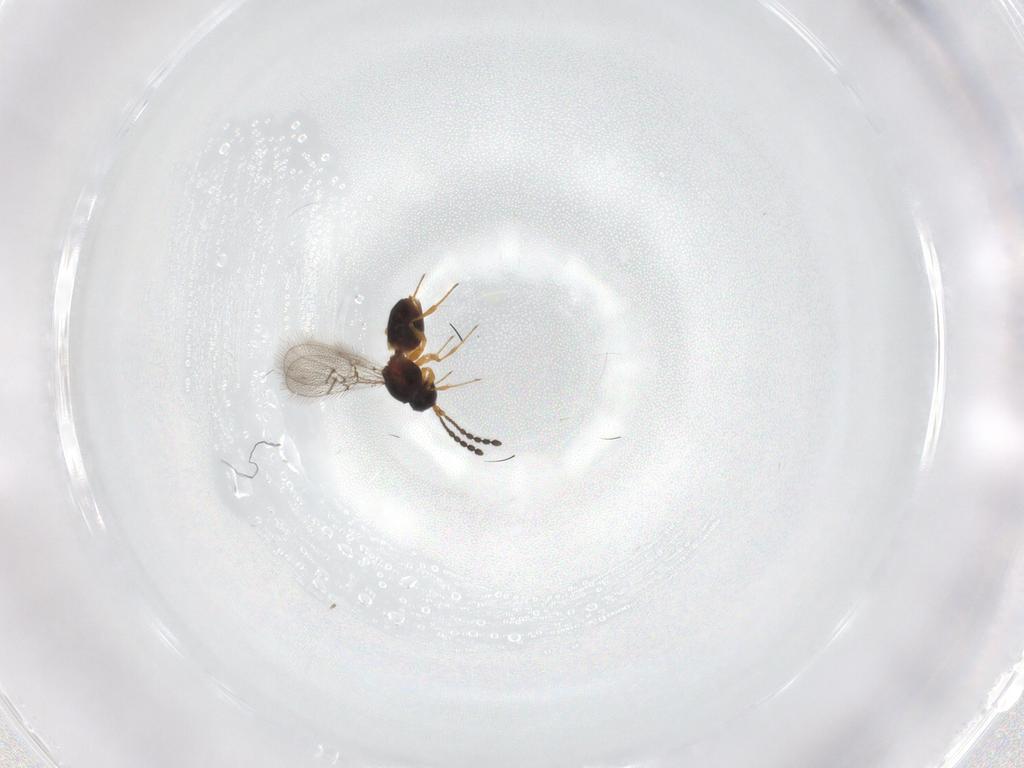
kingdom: Animalia
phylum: Arthropoda
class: Insecta
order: Hymenoptera
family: Figitidae
